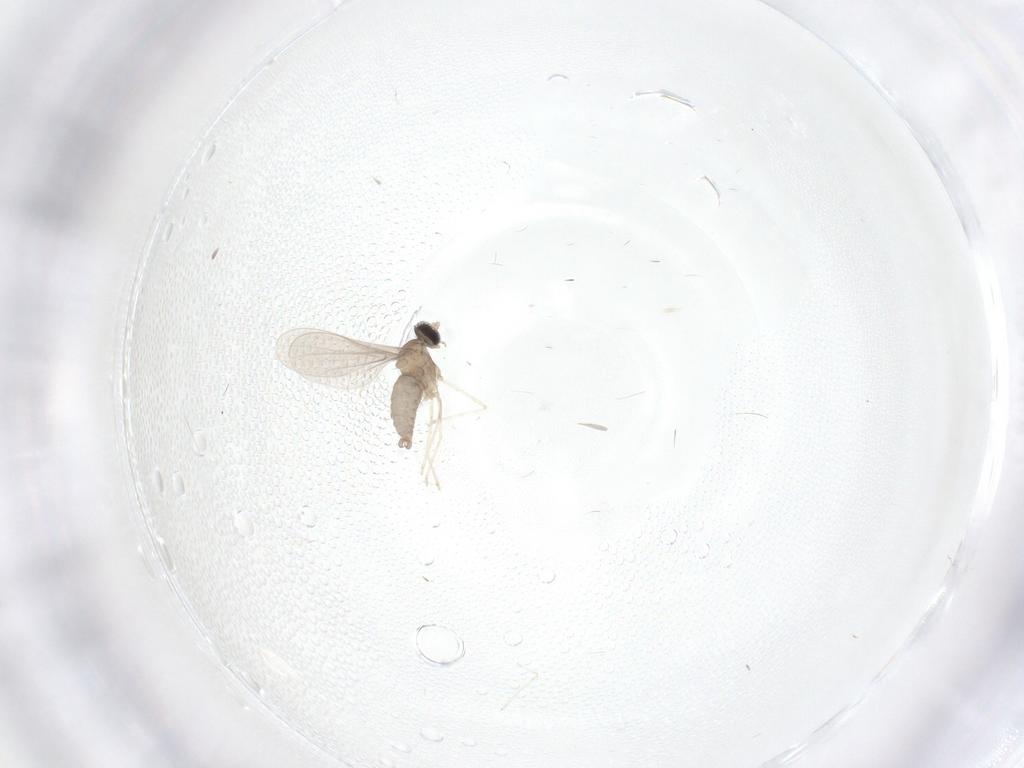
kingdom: Animalia
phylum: Arthropoda
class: Insecta
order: Diptera
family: Cecidomyiidae
